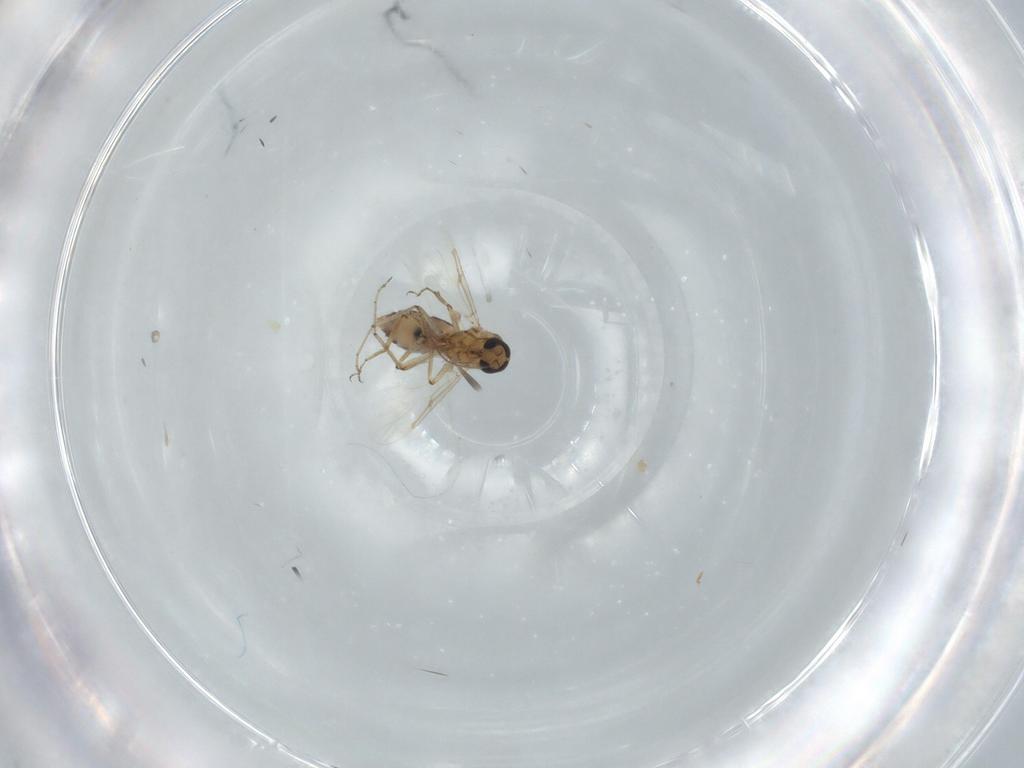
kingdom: Animalia
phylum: Arthropoda
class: Insecta
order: Diptera
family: Ceratopogonidae
